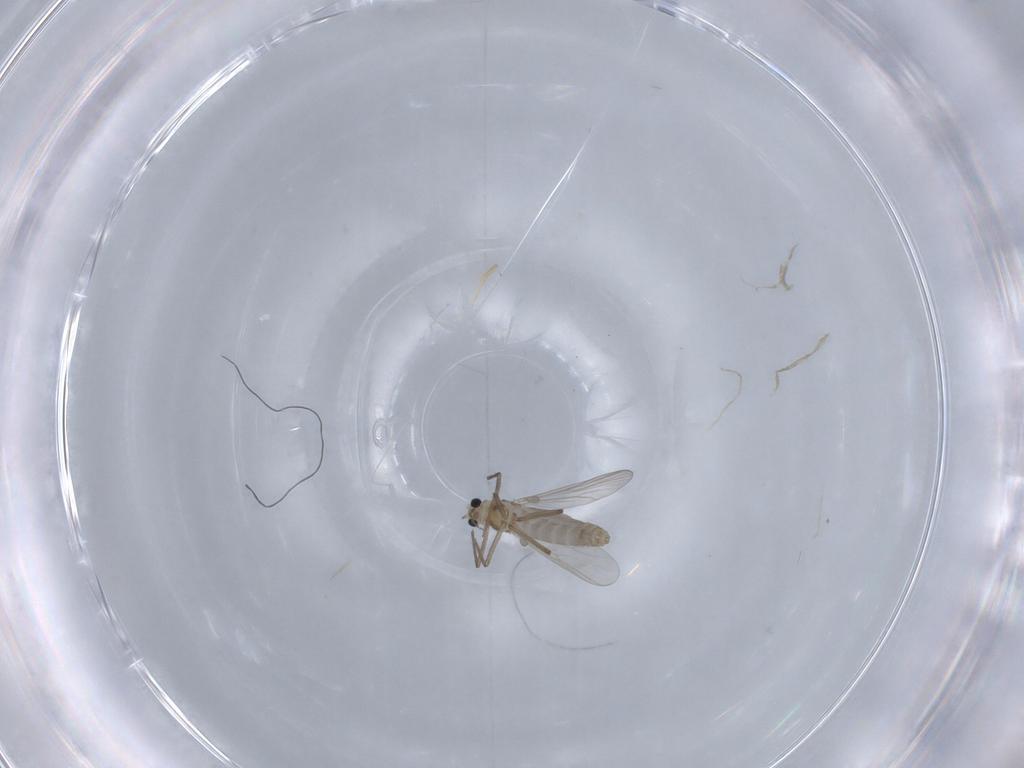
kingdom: Animalia
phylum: Arthropoda
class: Insecta
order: Diptera
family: Chironomidae
